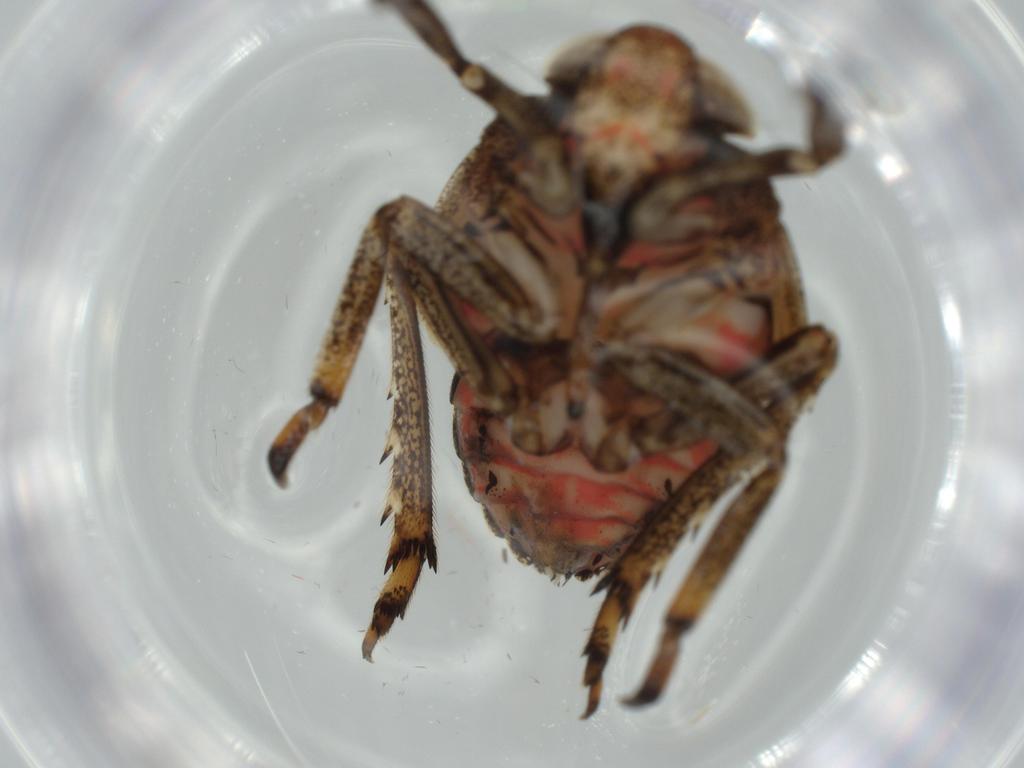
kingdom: Animalia
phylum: Arthropoda
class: Insecta
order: Hemiptera
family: Issidae
